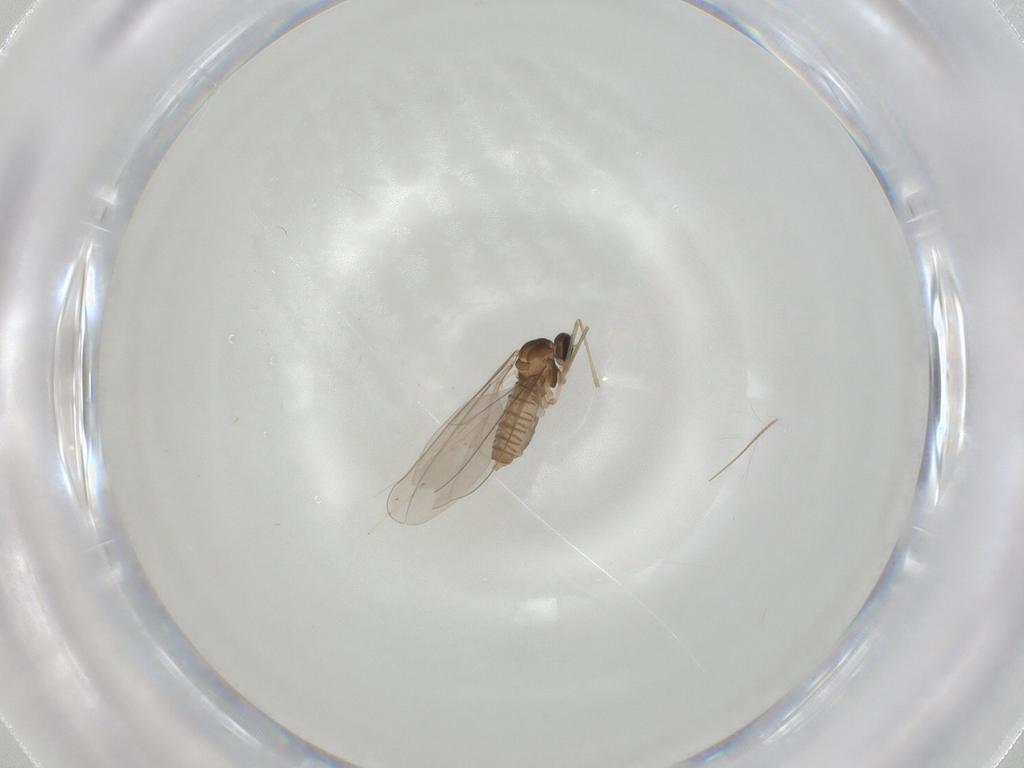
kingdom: Animalia
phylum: Arthropoda
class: Insecta
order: Diptera
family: Cecidomyiidae
